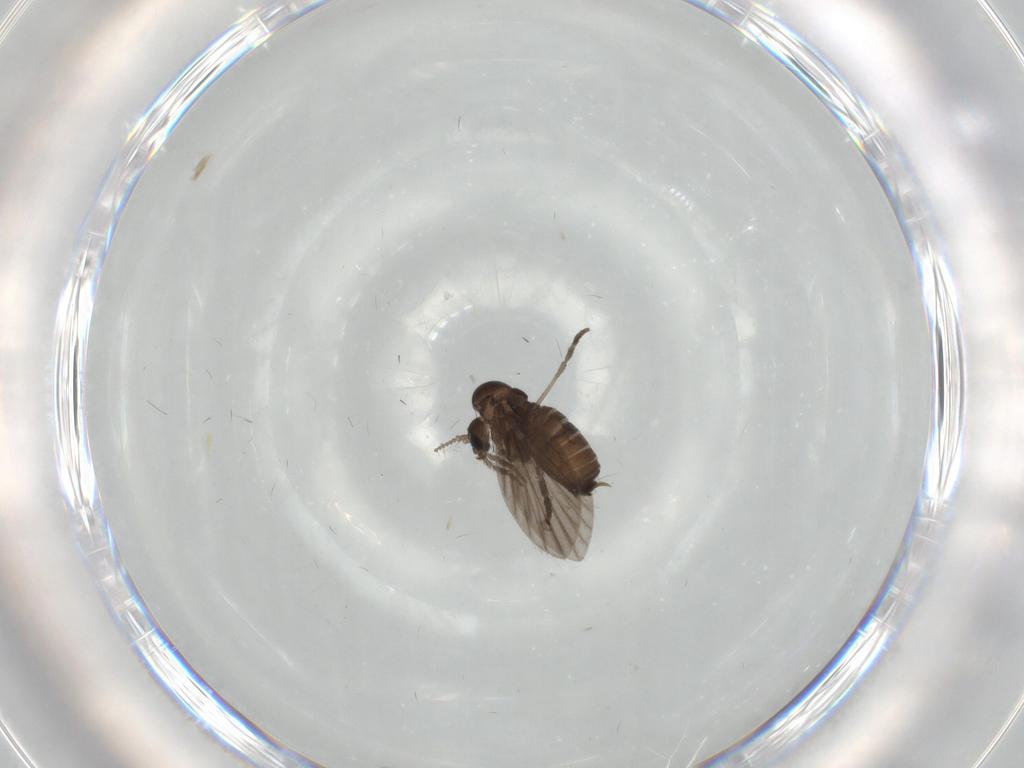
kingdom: Animalia
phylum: Arthropoda
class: Insecta
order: Diptera
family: Psychodidae
